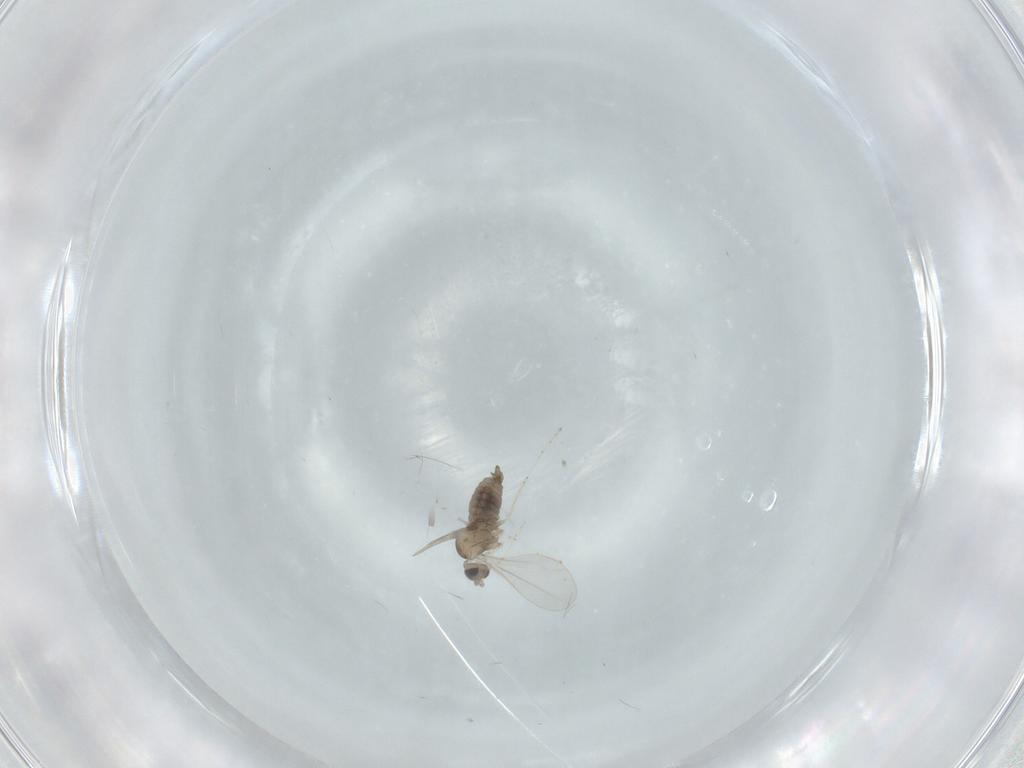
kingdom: Animalia
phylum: Arthropoda
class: Insecta
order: Diptera
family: Cecidomyiidae
